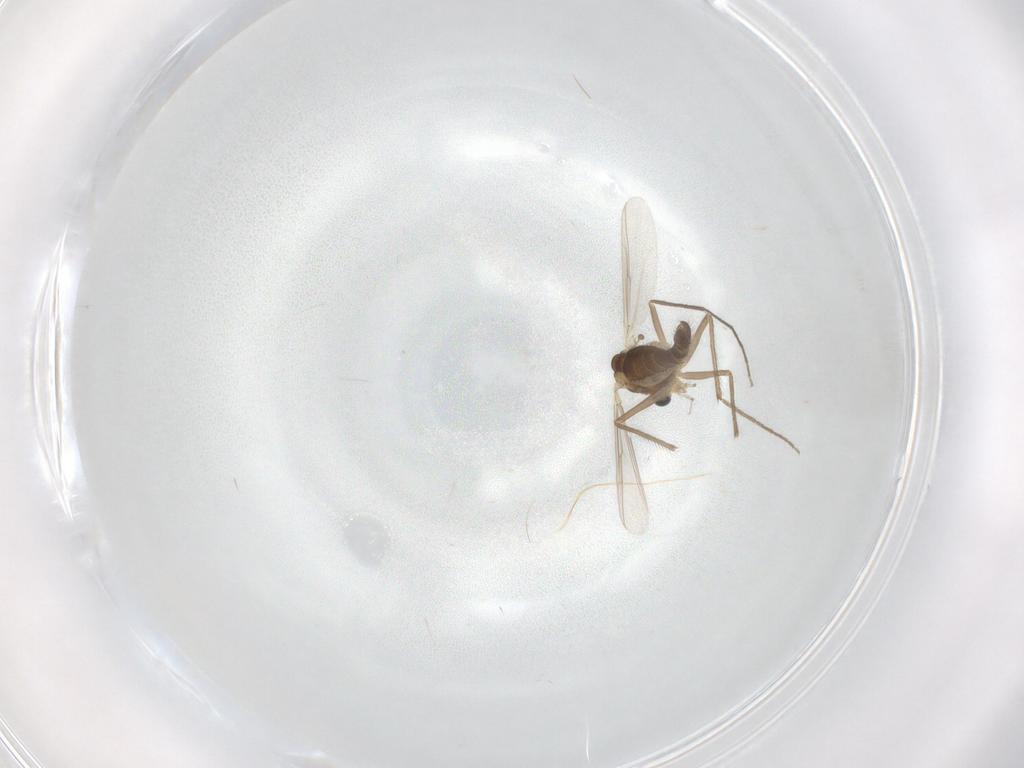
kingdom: Animalia
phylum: Arthropoda
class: Insecta
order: Diptera
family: Chironomidae
